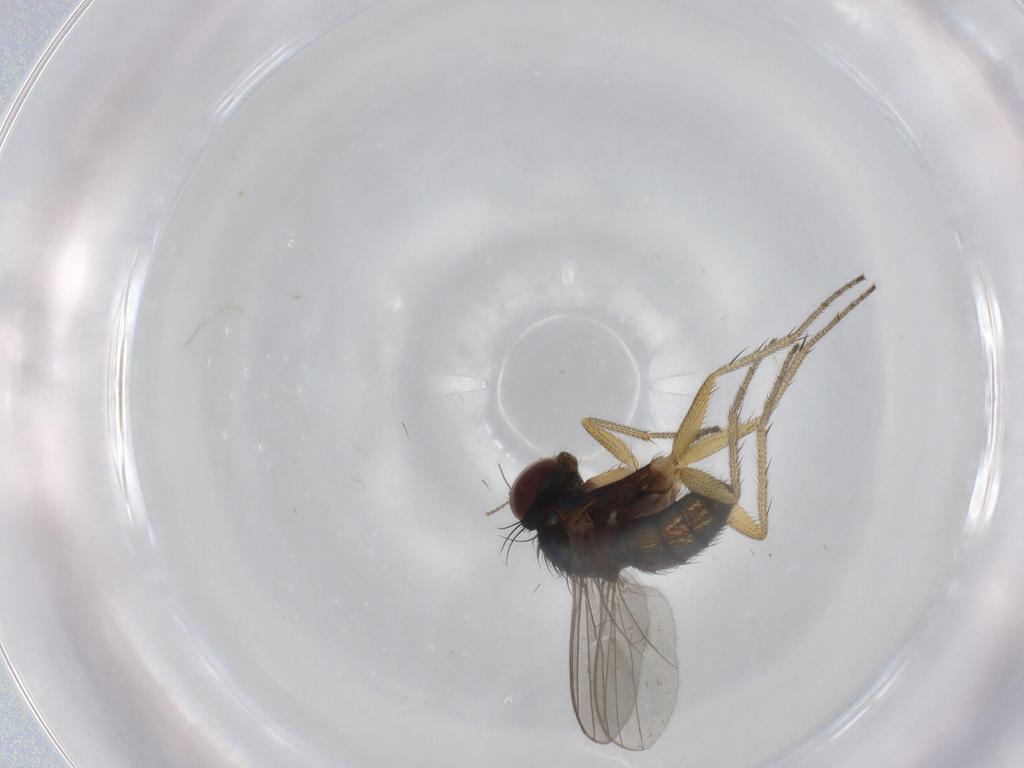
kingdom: Animalia
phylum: Arthropoda
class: Insecta
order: Diptera
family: Dolichopodidae
